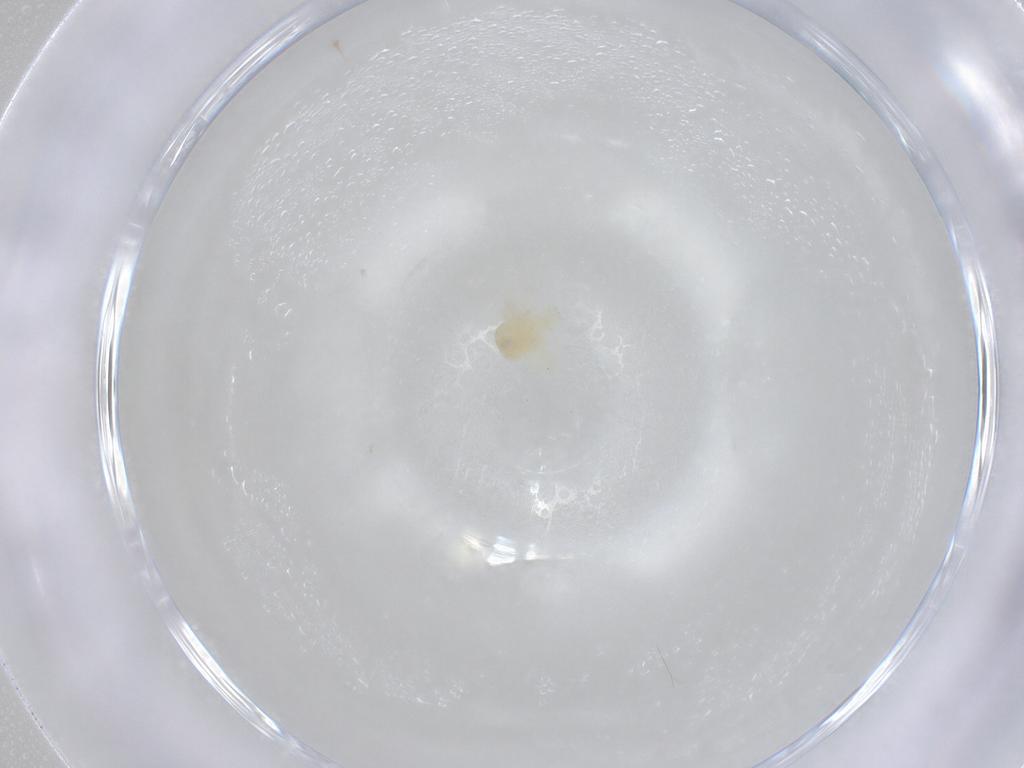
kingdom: Animalia
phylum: Arthropoda
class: Arachnida
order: Trombidiformes
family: Anystidae
